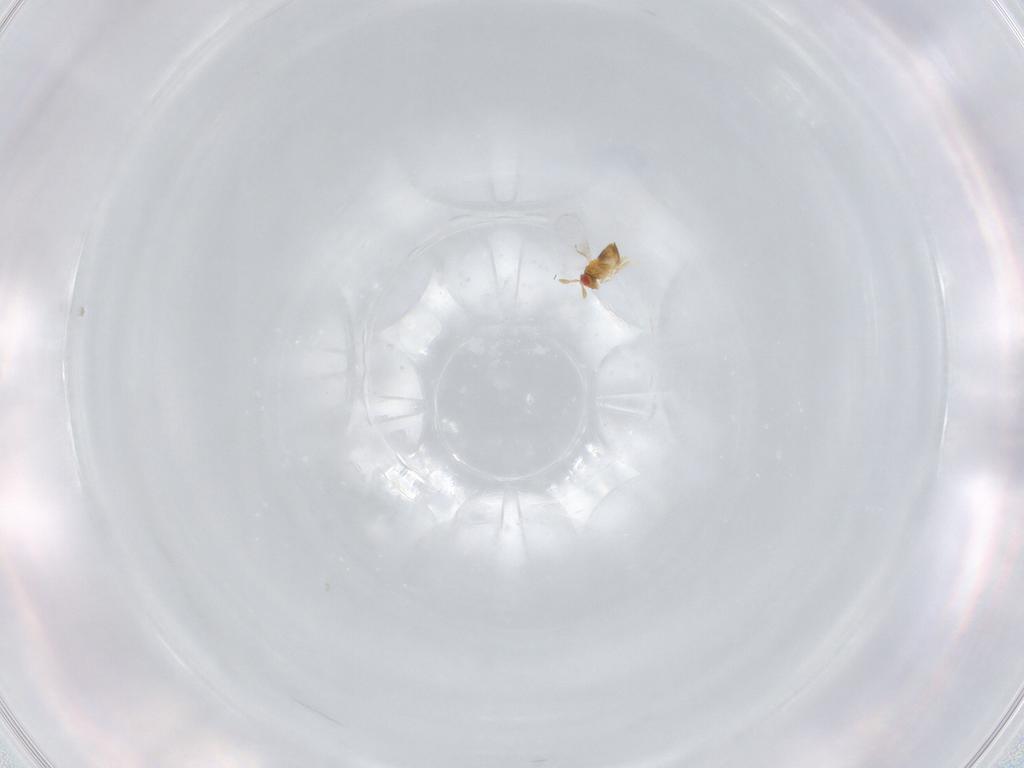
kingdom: Animalia
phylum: Arthropoda
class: Insecta
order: Hymenoptera
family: Trichogrammatidae
